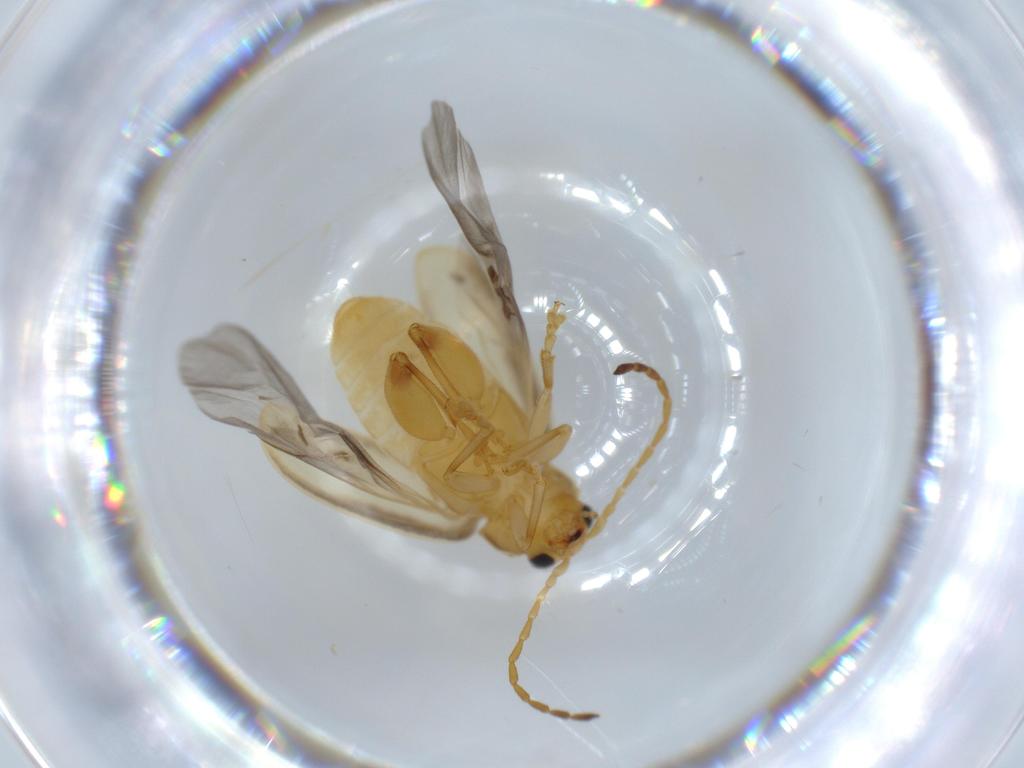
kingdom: Animalia
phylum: Arthropoda
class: Insecta
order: Coleoptera
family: Chrysomelidae
